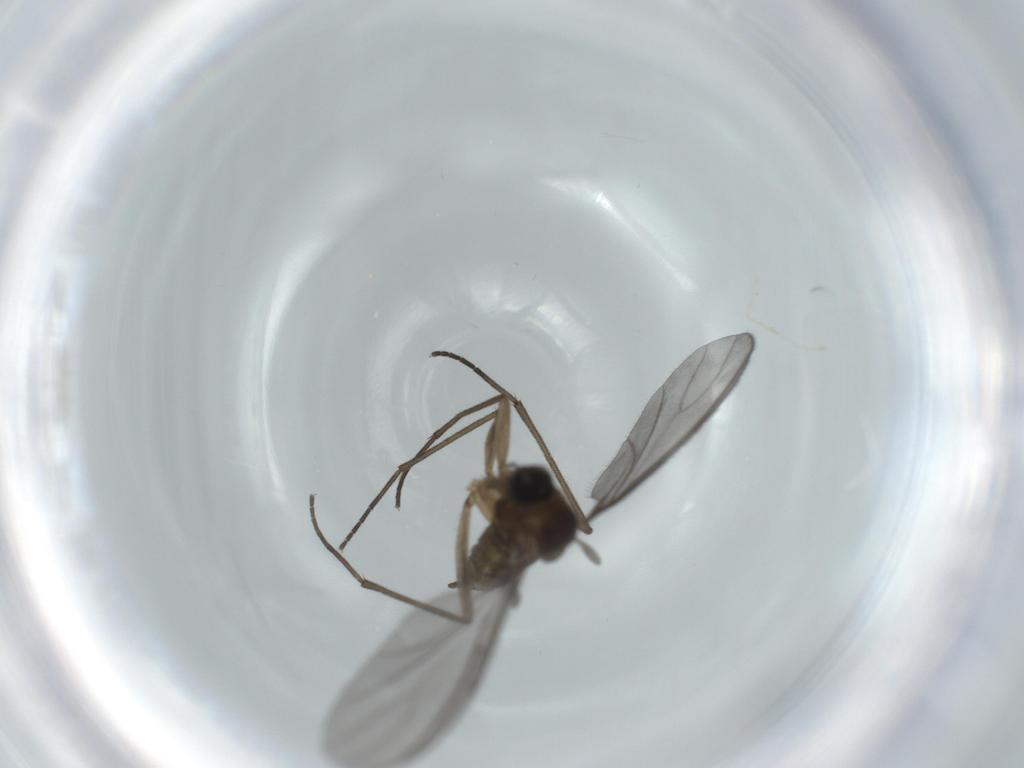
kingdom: Animalia
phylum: Arthropoda
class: Insecta
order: Diptera
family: Sciaridae
